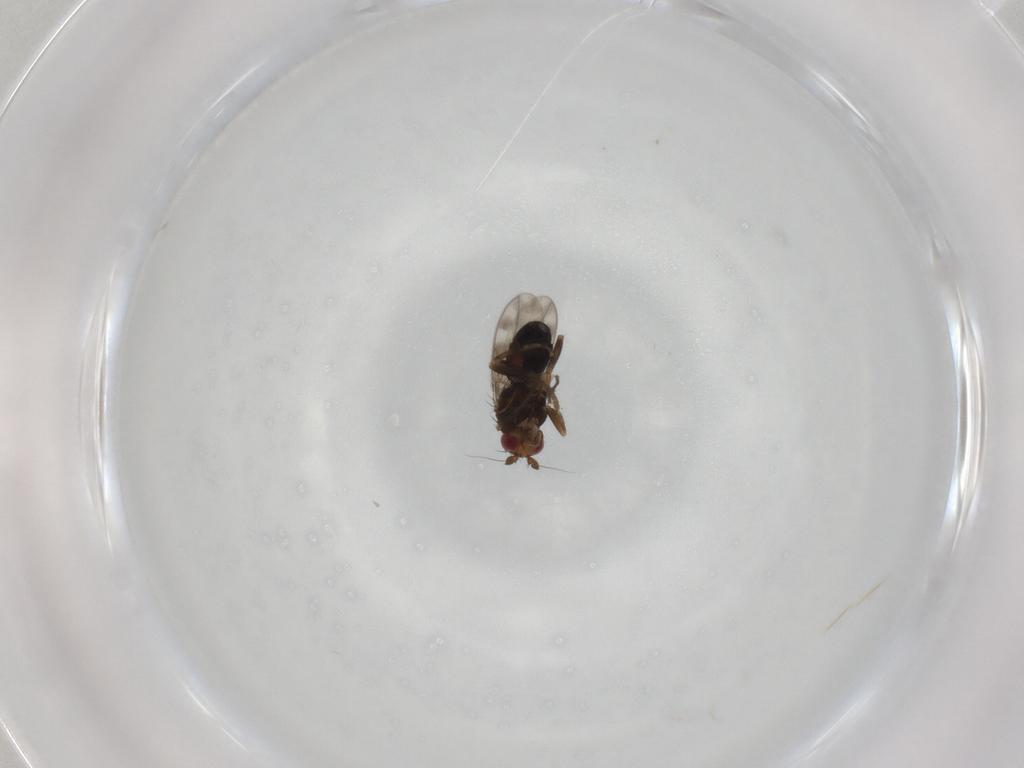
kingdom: Animalia
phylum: Arthropoda
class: Insecta
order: Diptera
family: Sphaeroceridae
